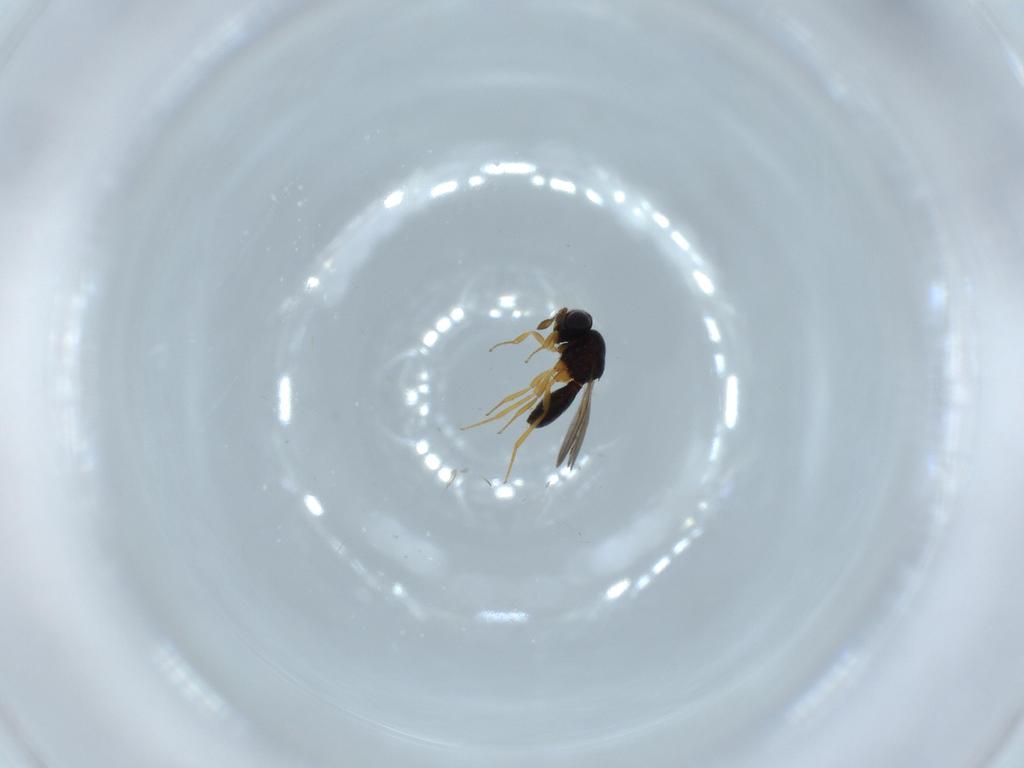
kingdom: Animalia
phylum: Arthropoda
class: Insecta
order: Hymenoptera
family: Scelionidae
